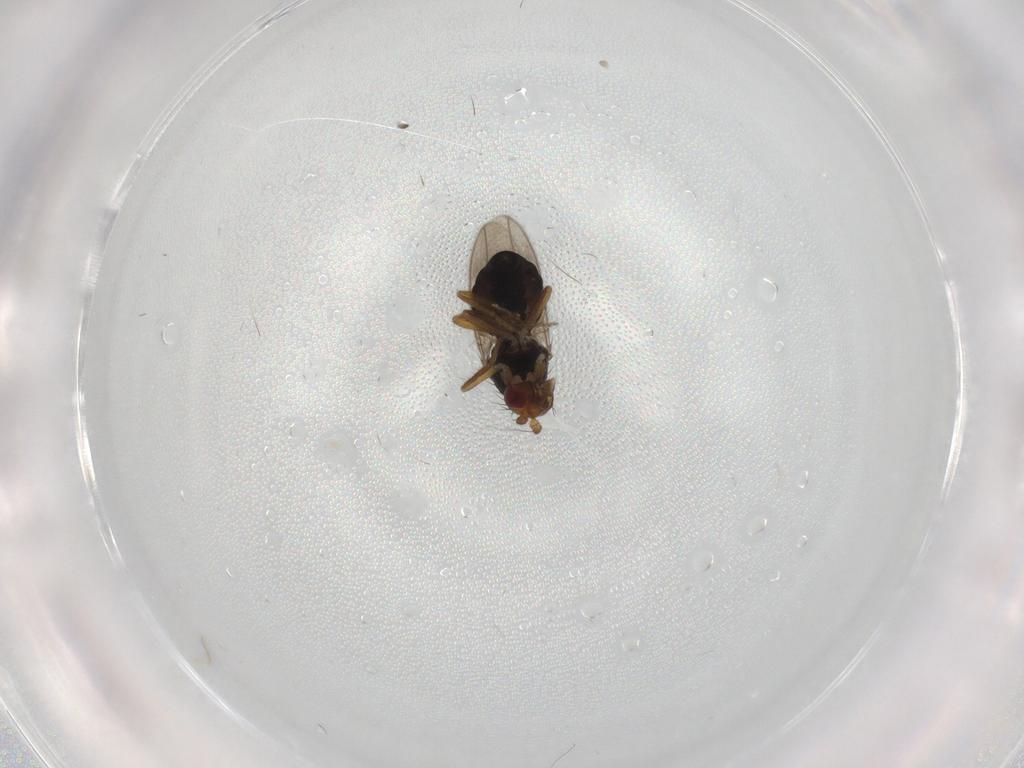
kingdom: Animalia
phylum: Arthropoda
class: Insecta
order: Diptera
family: Sphaeroceridae
